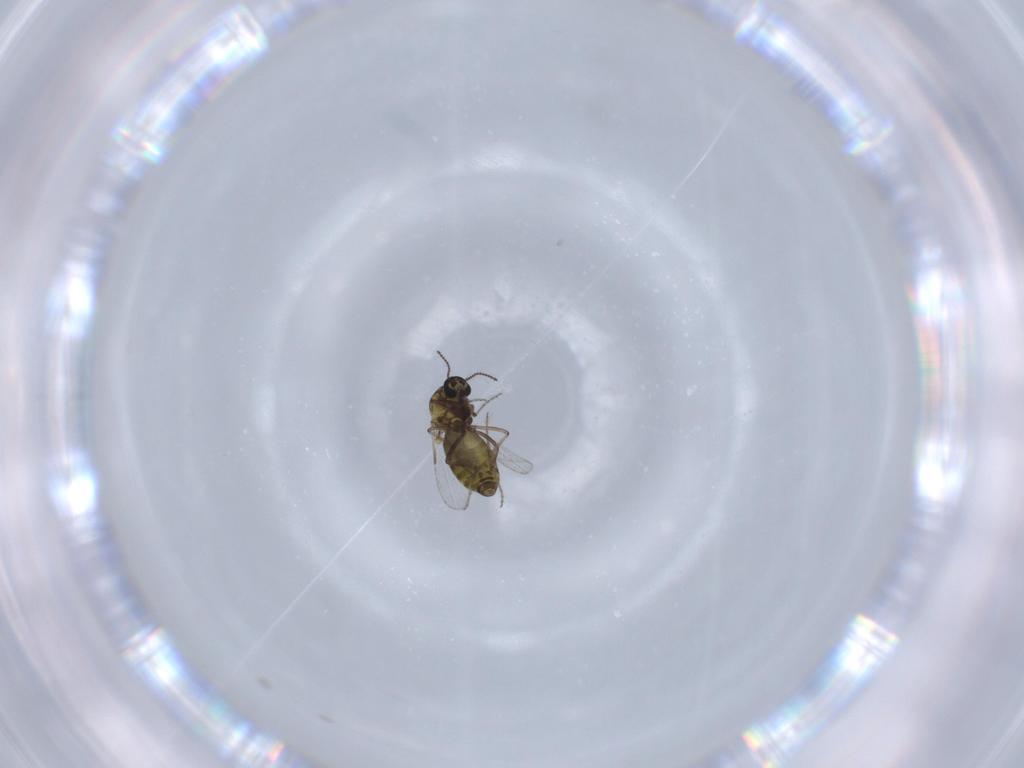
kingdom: Animalia
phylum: Arthropoda
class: Insecta
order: Diptera
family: Ceratopogonidae
